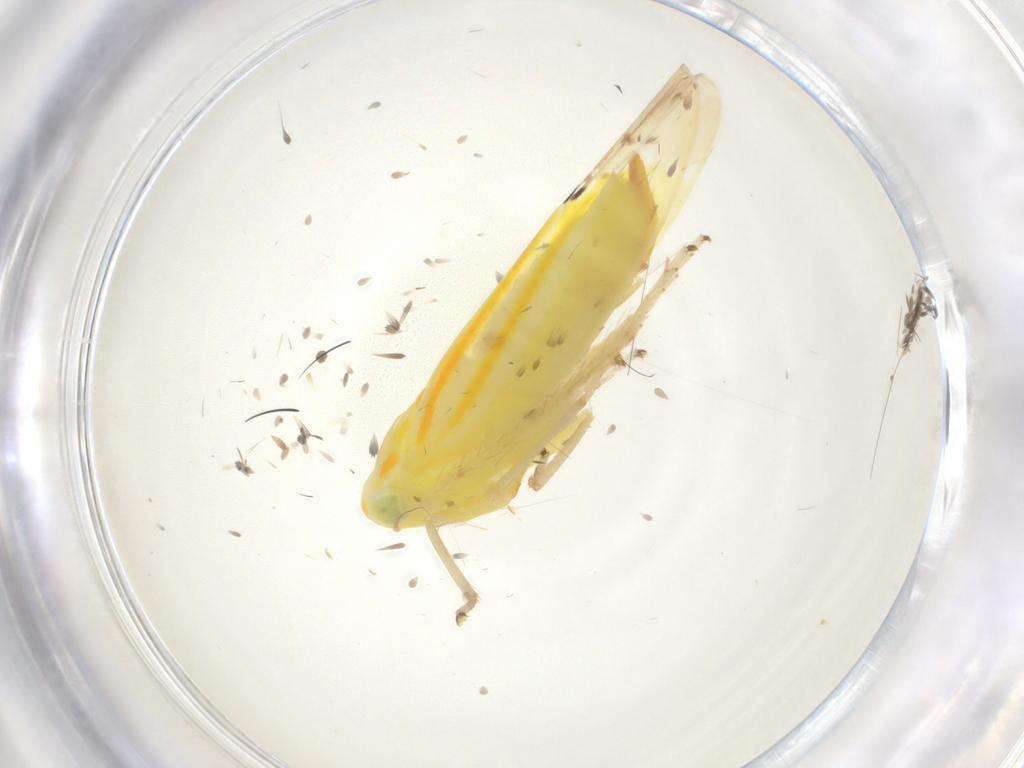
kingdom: Animalia
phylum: Arthropoda
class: Insecta
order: Hemiptera
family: Cicadellidae
